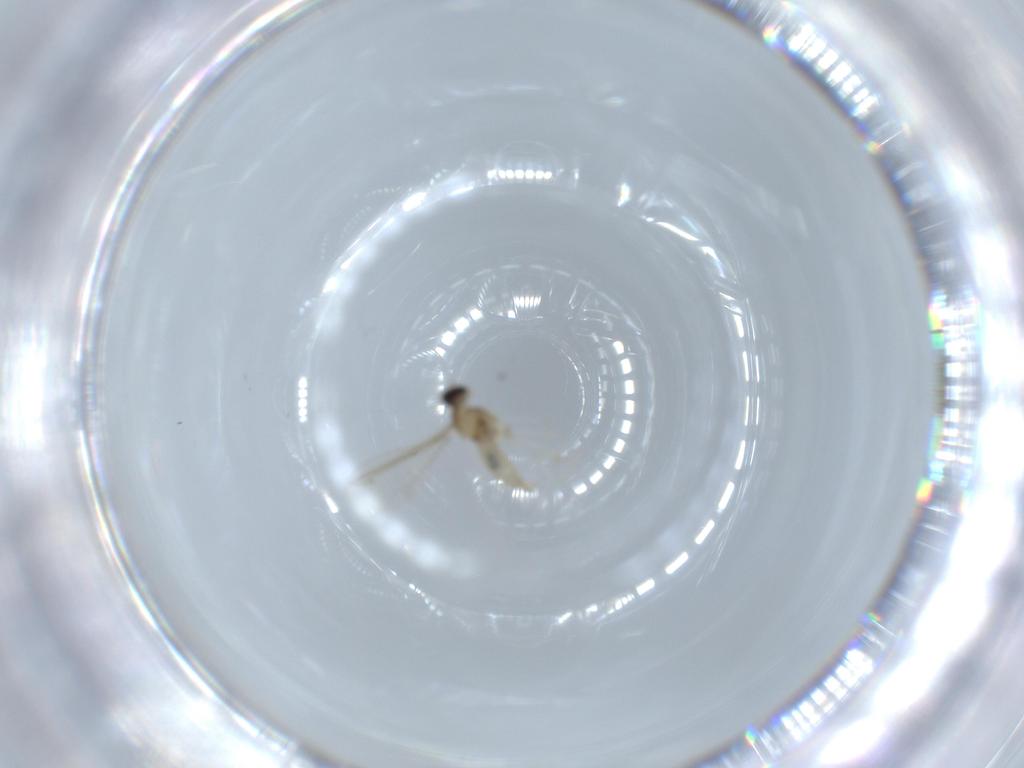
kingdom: Animalia
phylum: Arthropoda
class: Insecta
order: Diptera
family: Cecidomyiidae
